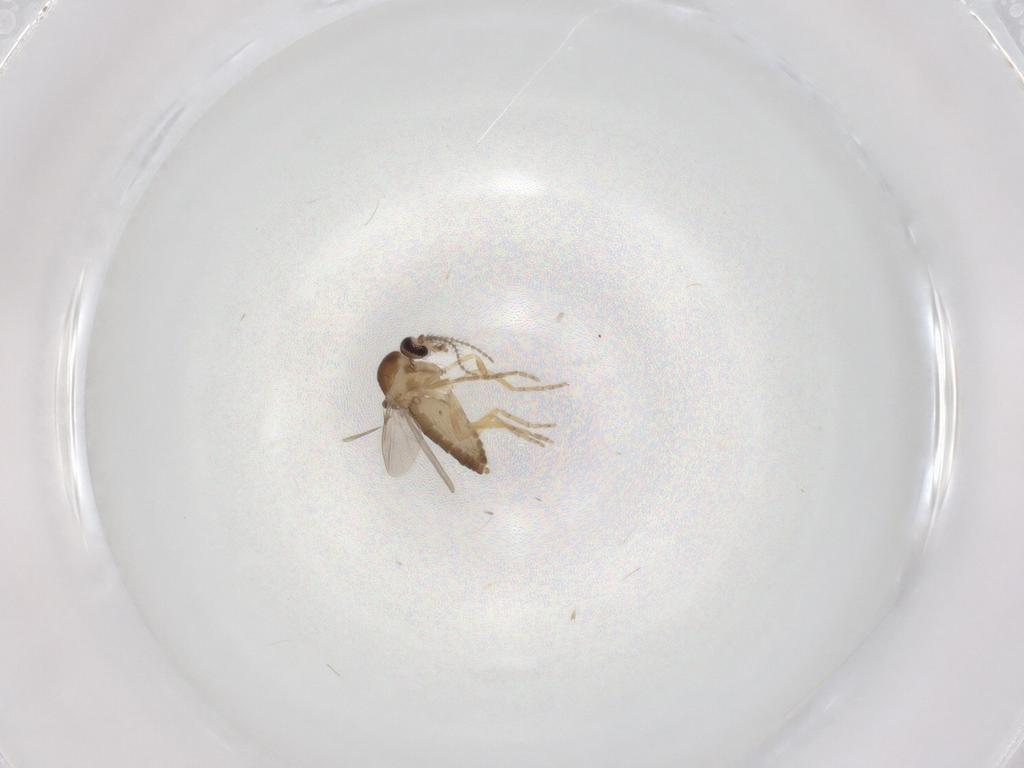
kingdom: Animalia
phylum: Arthropoda
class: Insecta
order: Diptera
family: Ceratopogonidae
